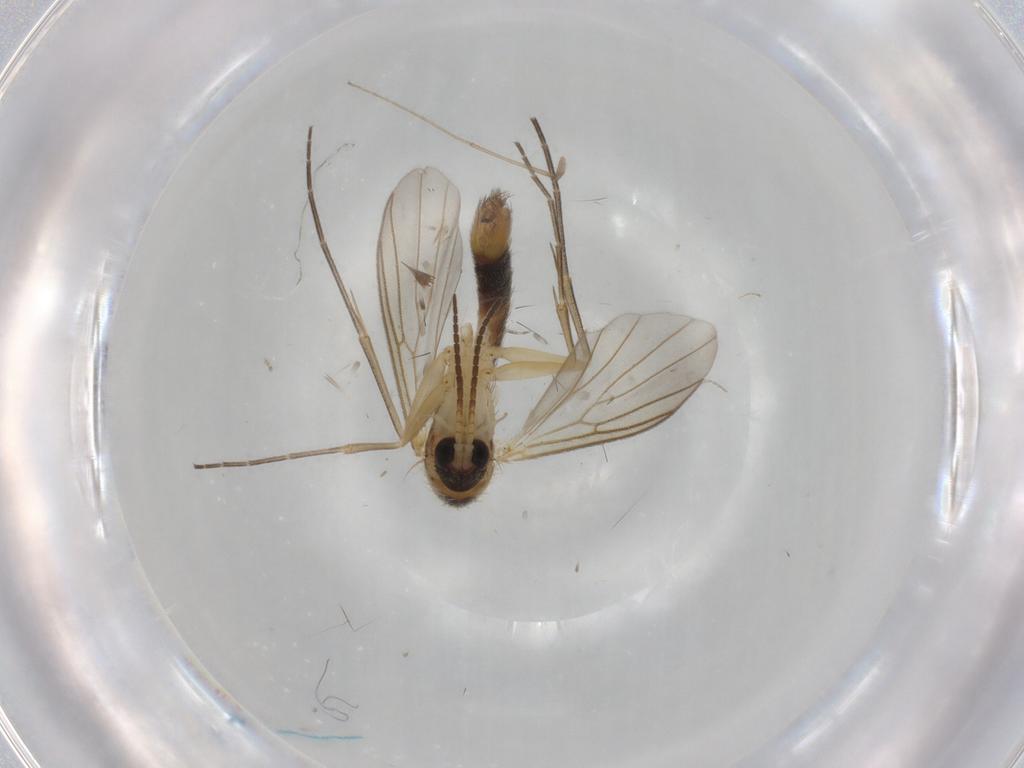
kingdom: Animalia
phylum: Arthropoda
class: Insecta
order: Diptera
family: Mycetophilidae
